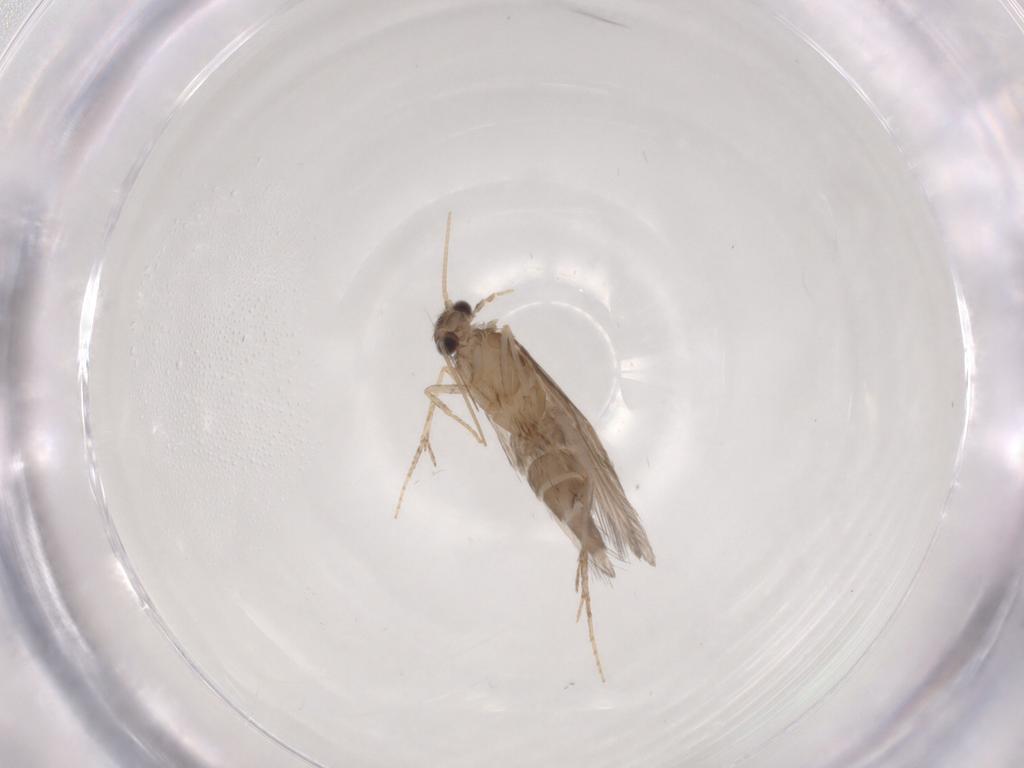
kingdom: Animalia
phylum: Arthropoda
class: Insecta
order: Trichoptera
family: Hydroptilidae
